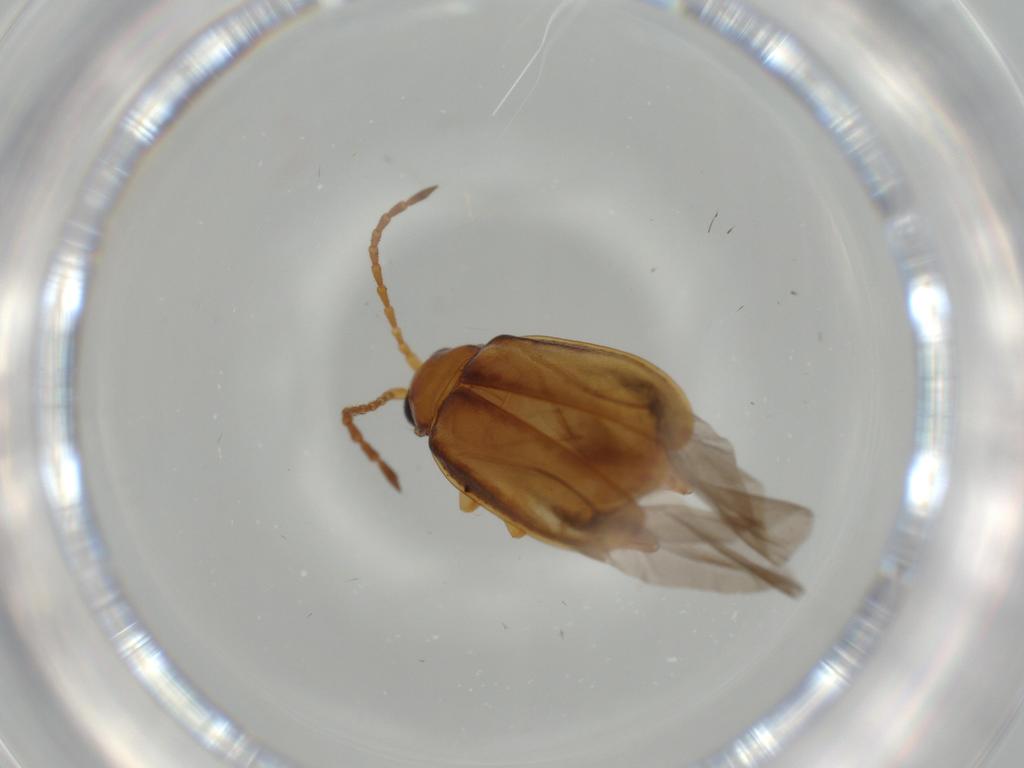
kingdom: Animalia
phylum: Arthropoda
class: Insecta
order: Coleoptera
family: Chrysomelidae
